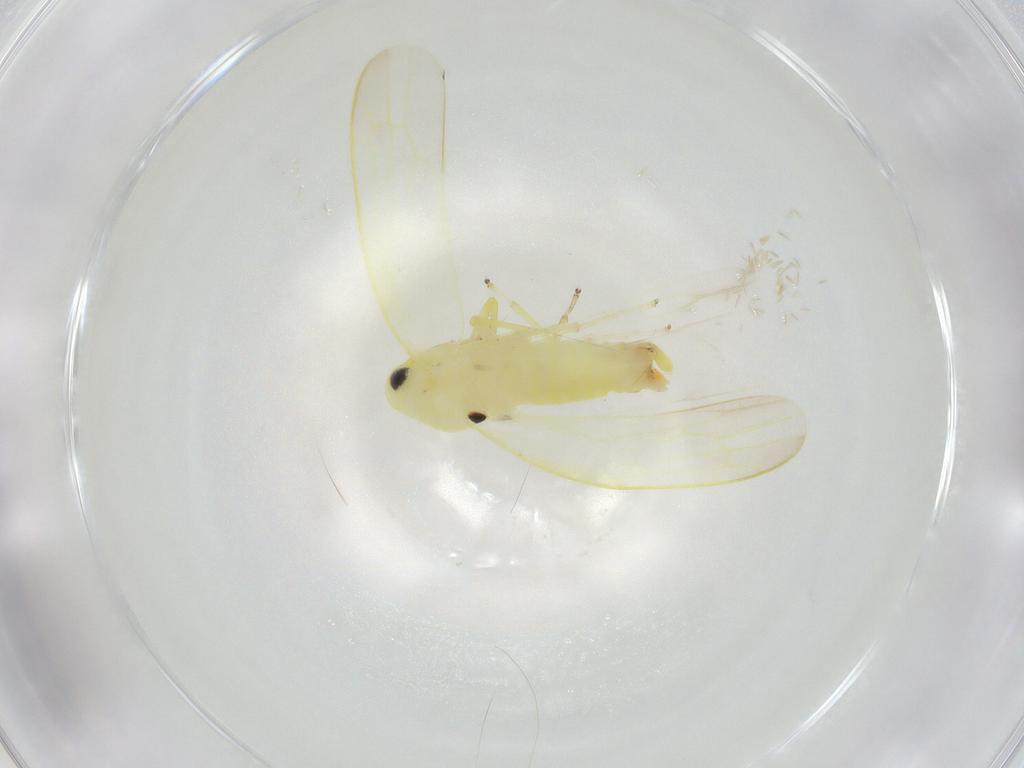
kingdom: Animalia
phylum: Arthropoda
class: Insecta
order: Hemiptera
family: Cicadellidae
